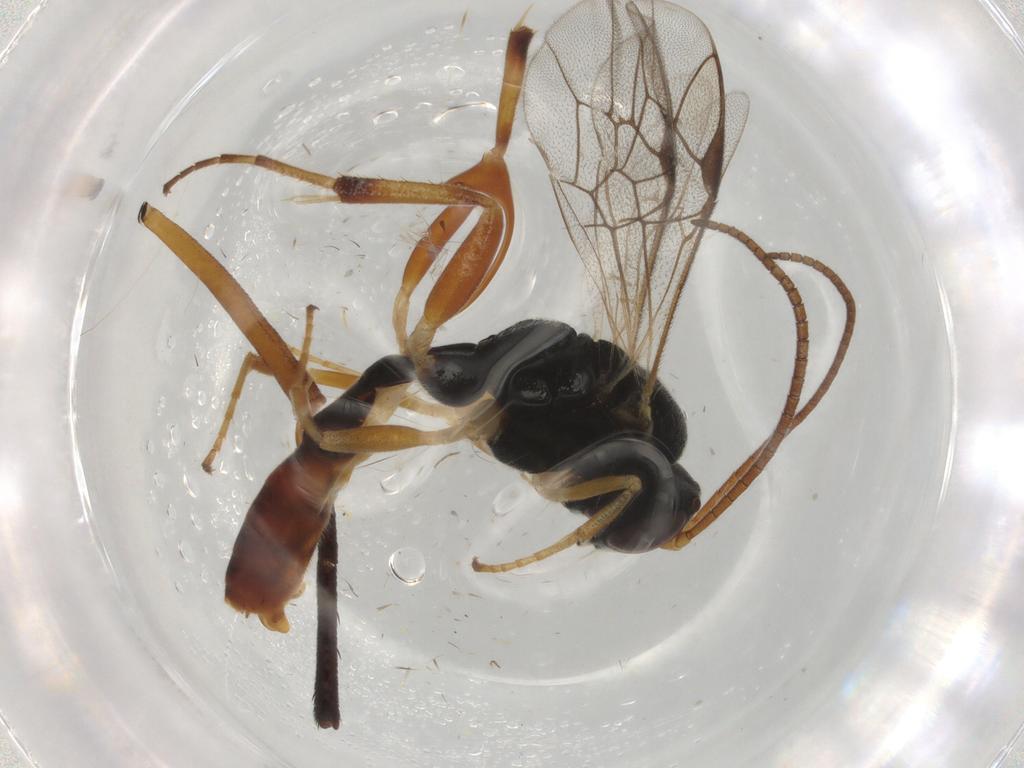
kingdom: Animalia
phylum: Arthropoda
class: Insecta
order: Hymenoptera
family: Ichneumonidae
